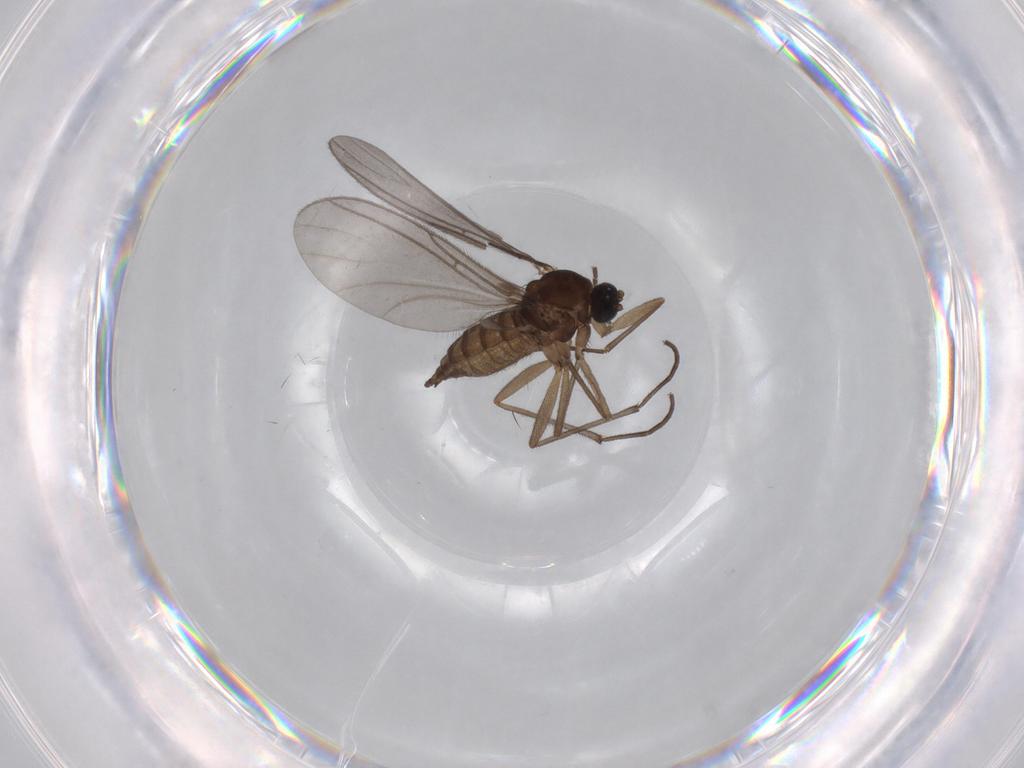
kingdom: Animalia
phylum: Arthropoda
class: Insecta
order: Diptera
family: Sciaridae
